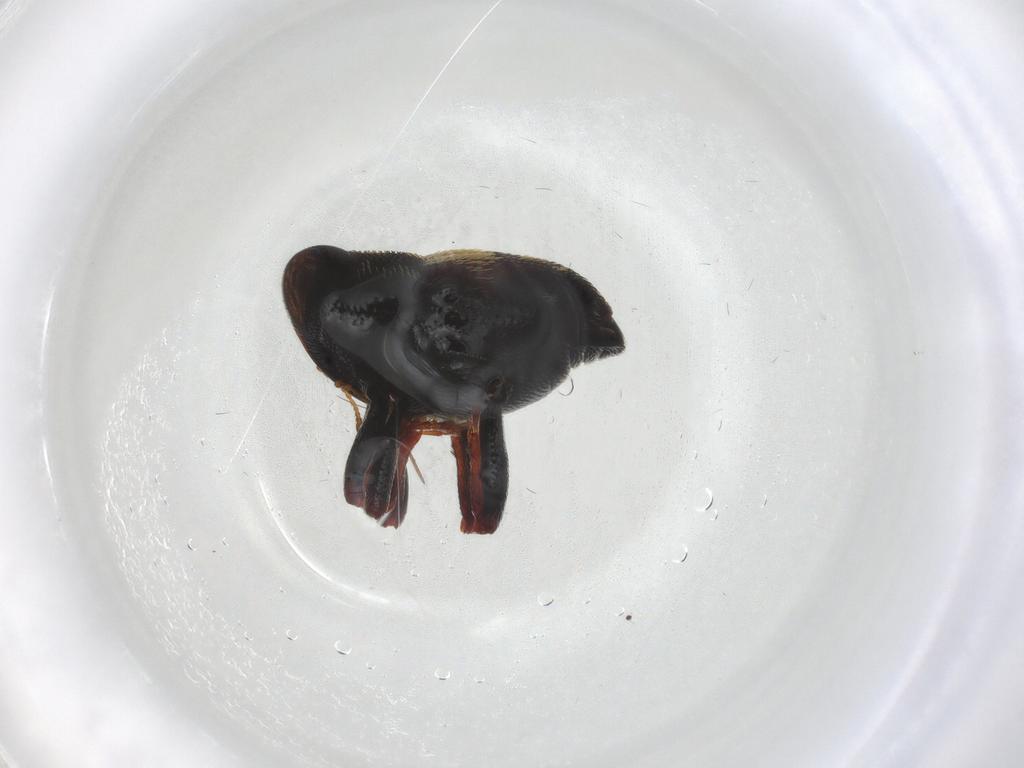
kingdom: Animalia
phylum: Arthropoda
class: Insecta
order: Coleoptera
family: Curculionidae
